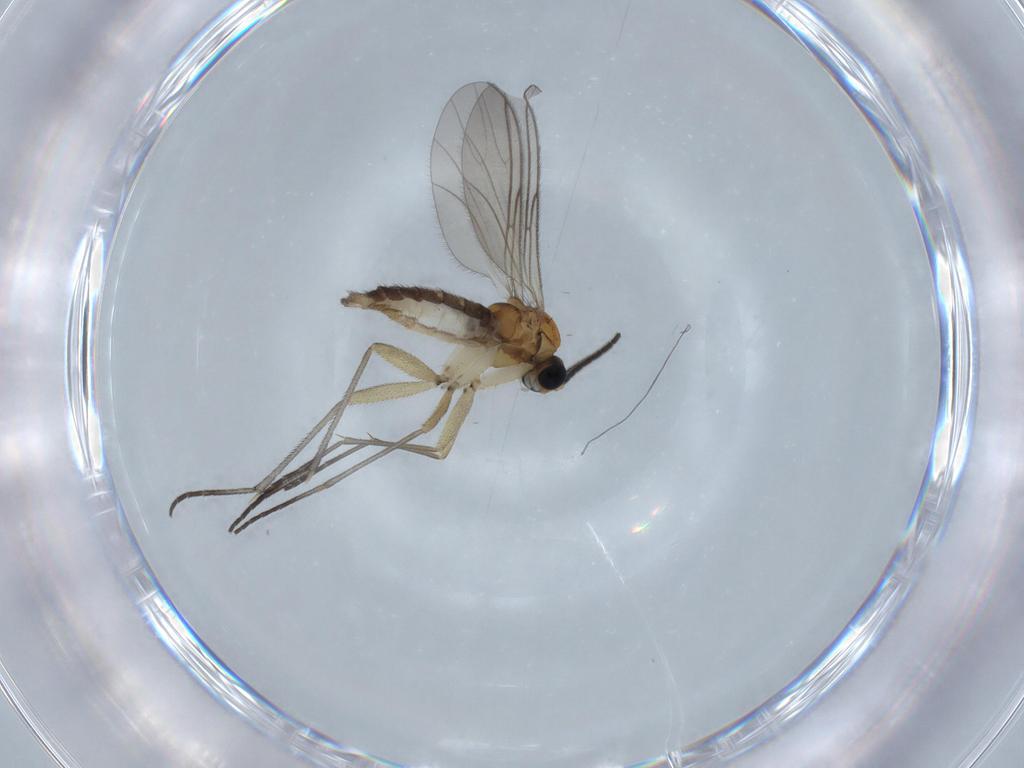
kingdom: Animalia
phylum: Arthropoda
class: Insecta
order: Diptera
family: Sciaridae
